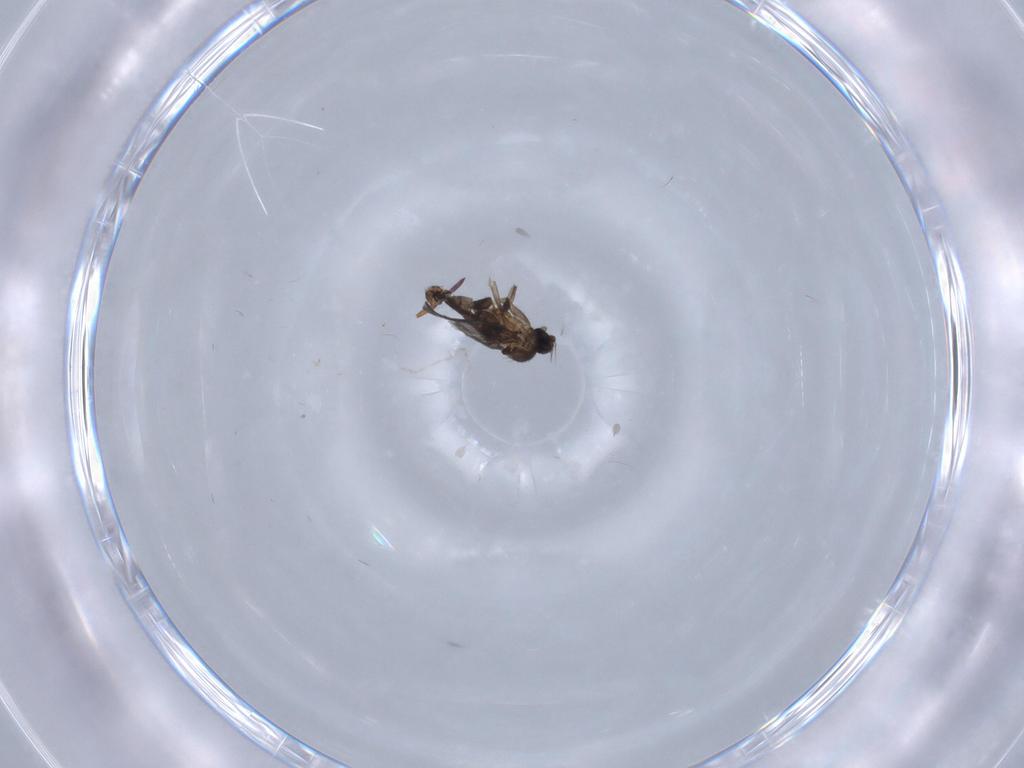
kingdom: Animalia
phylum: Arthropoda
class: Insecta
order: Diptera
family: Phoridae
